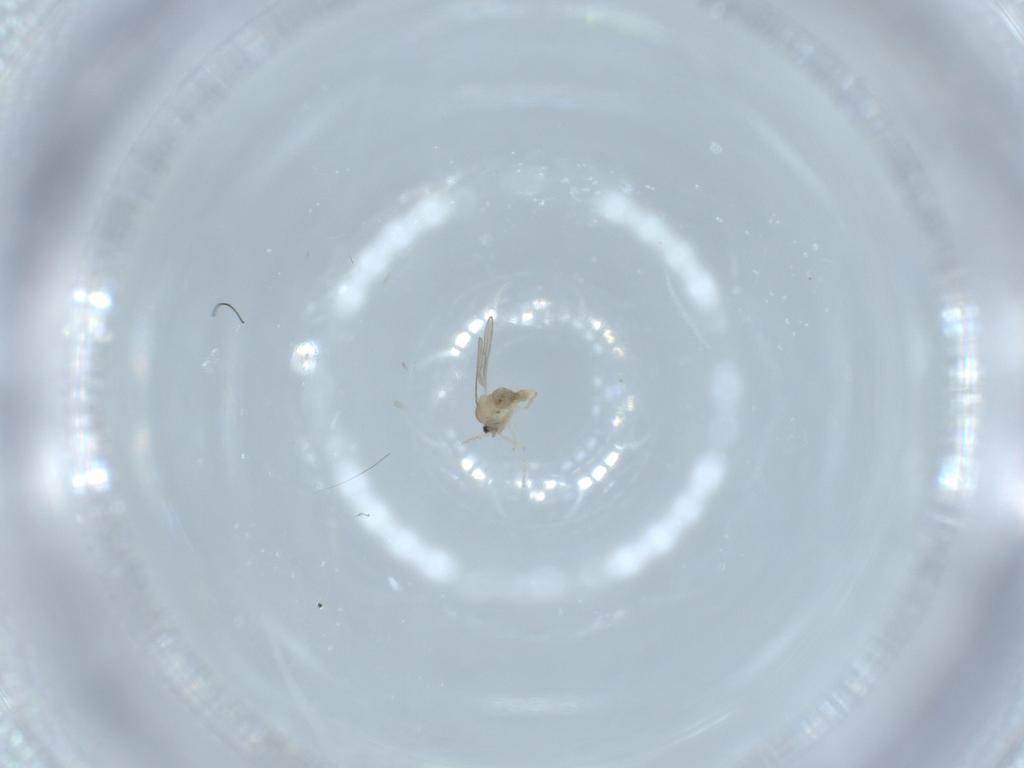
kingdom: Animalia
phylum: Arthropoda
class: Insecta
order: Diptera
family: Cecidomyiidae
